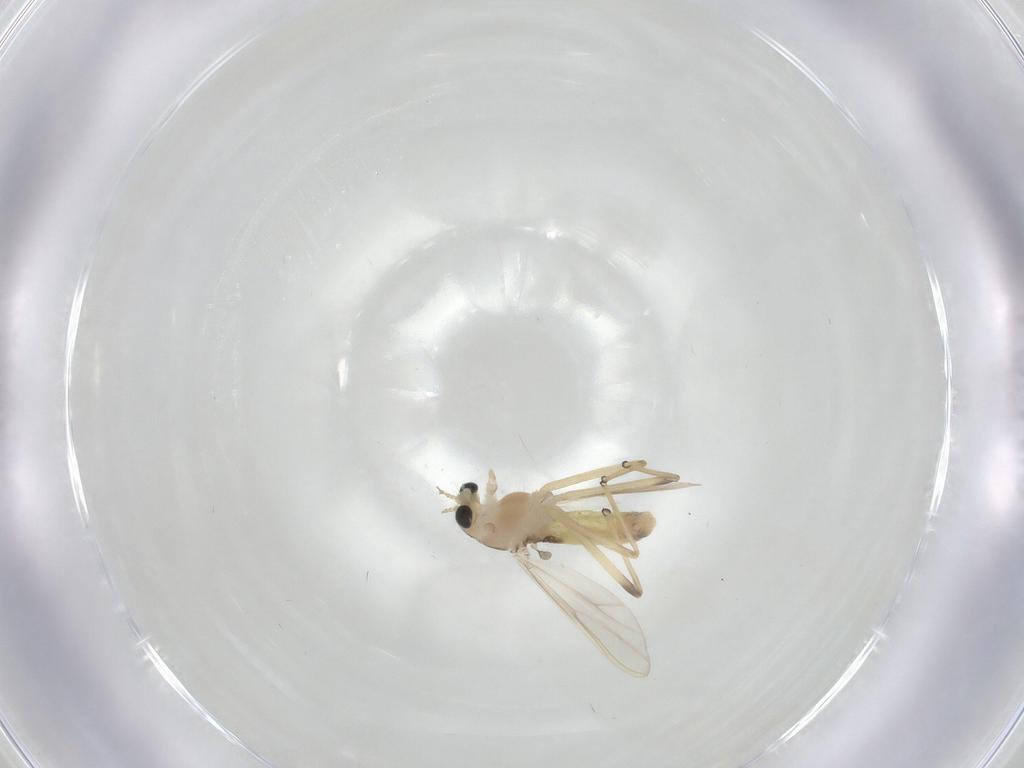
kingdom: Animalia
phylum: Arthropoda
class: Insecta
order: Diptera
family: Chironomidae
